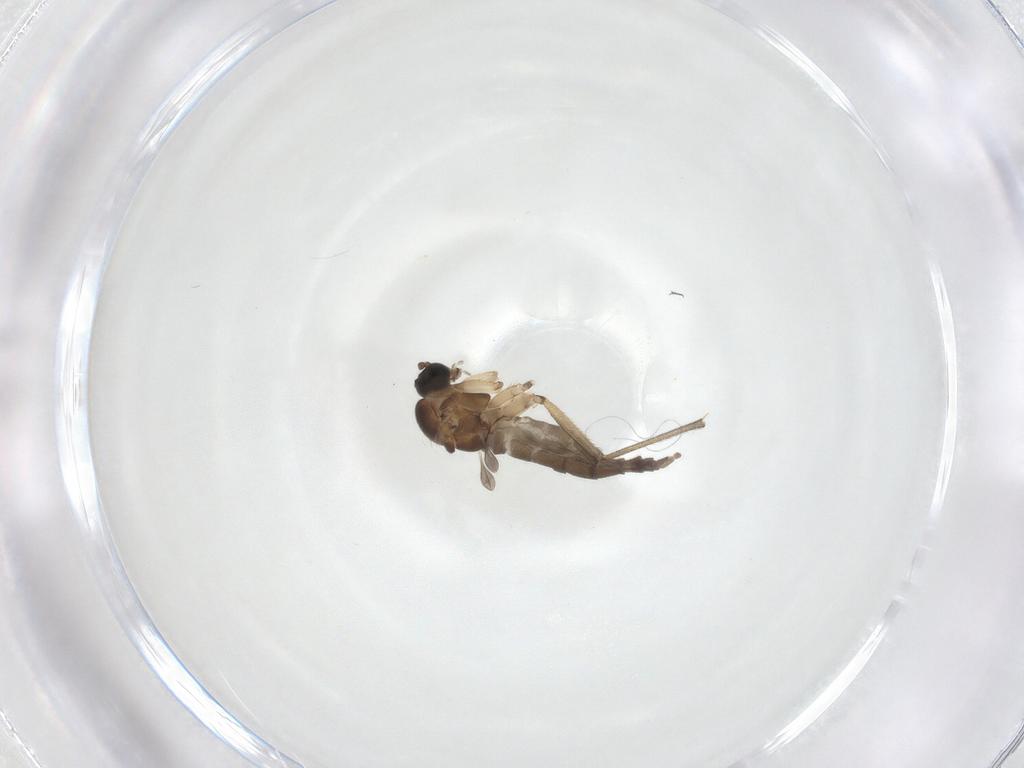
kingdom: Animalia
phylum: Arthropoda
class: Insecta
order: Diptera
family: Sciaridae
